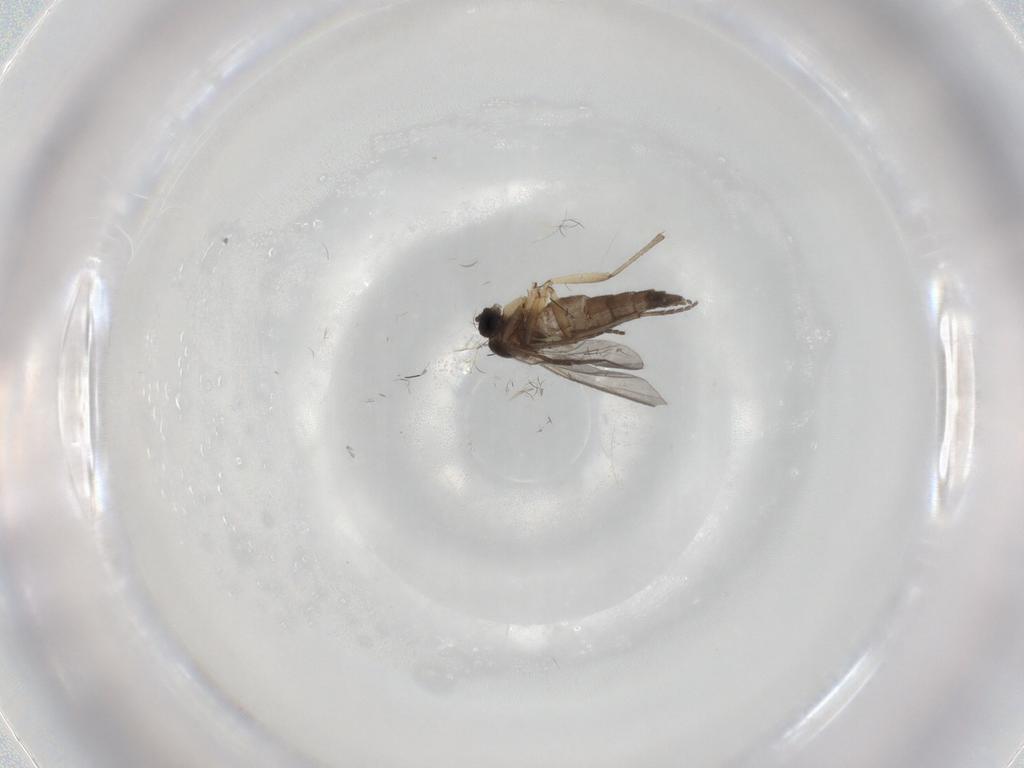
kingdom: Animalia
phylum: Arthropoda
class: Insecta
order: Diptera
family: Sciaridae
